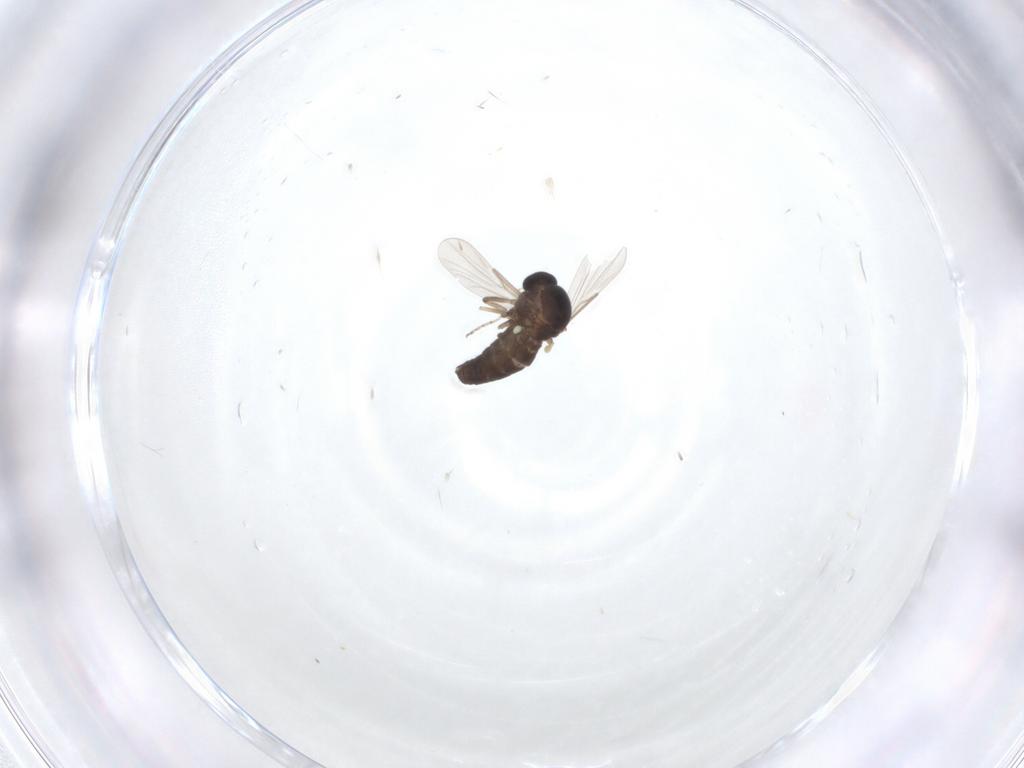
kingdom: Animalia
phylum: Arthropoda
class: Insecta
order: Diptera
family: Ceratopogonidae
